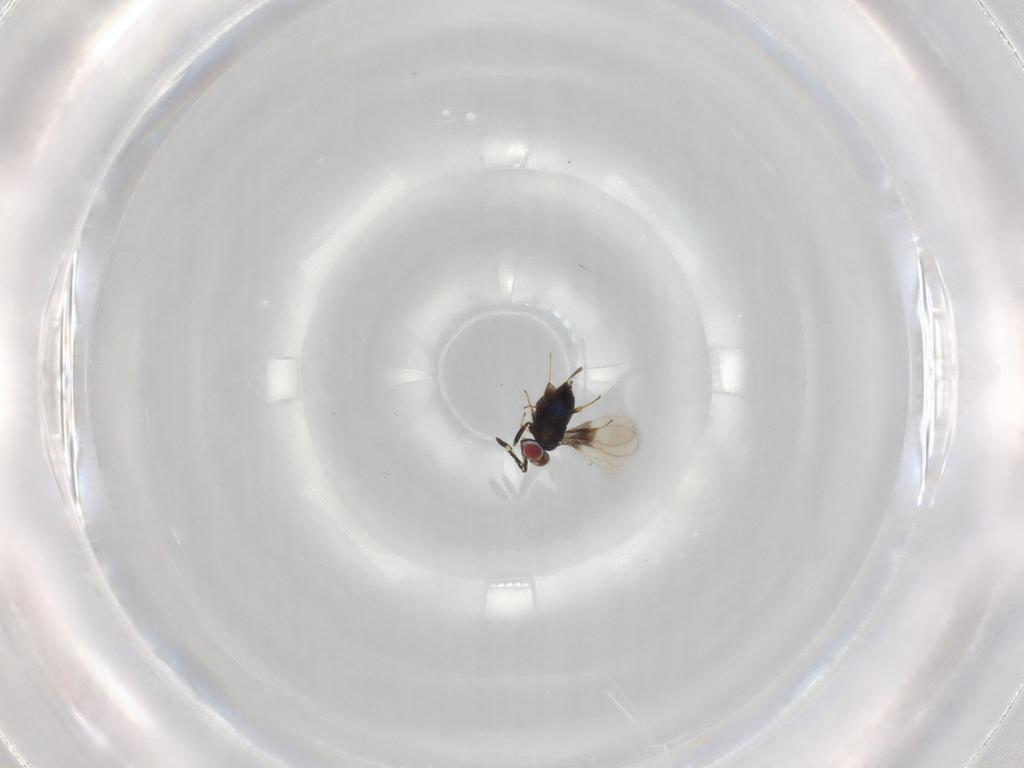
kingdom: Animalia
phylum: Arthropoda
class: Insecta
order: Hymenoptera
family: Azotidae
